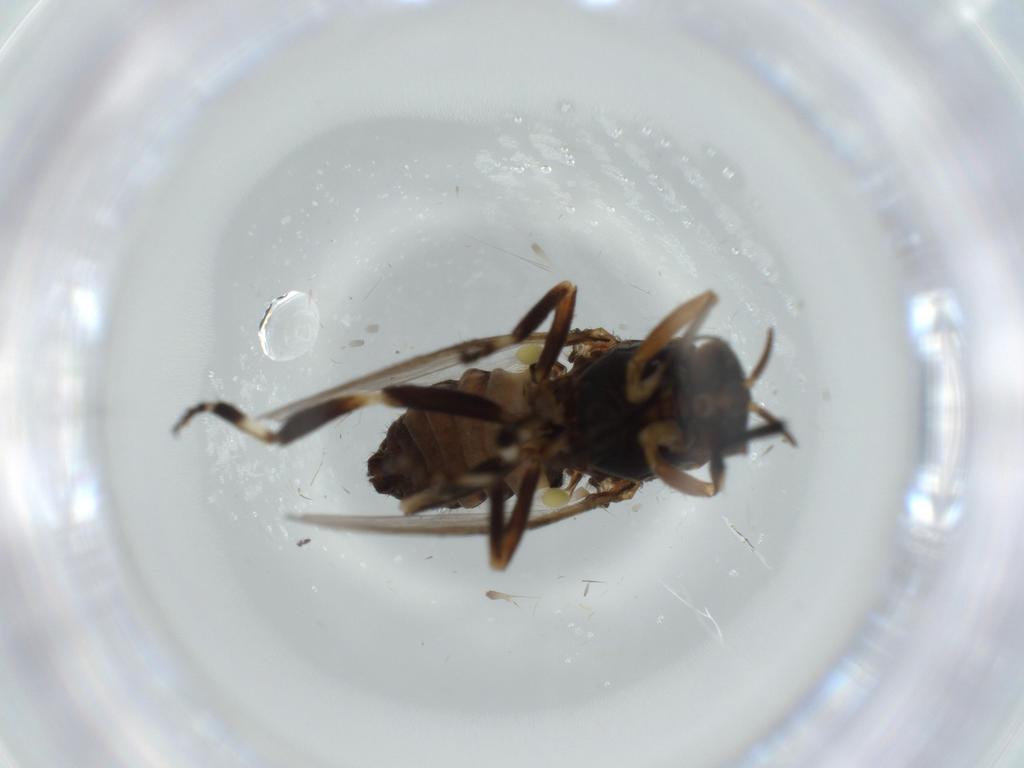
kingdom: Animalia
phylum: Arthropoda
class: Insecta
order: Diptera
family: Psychodidae
